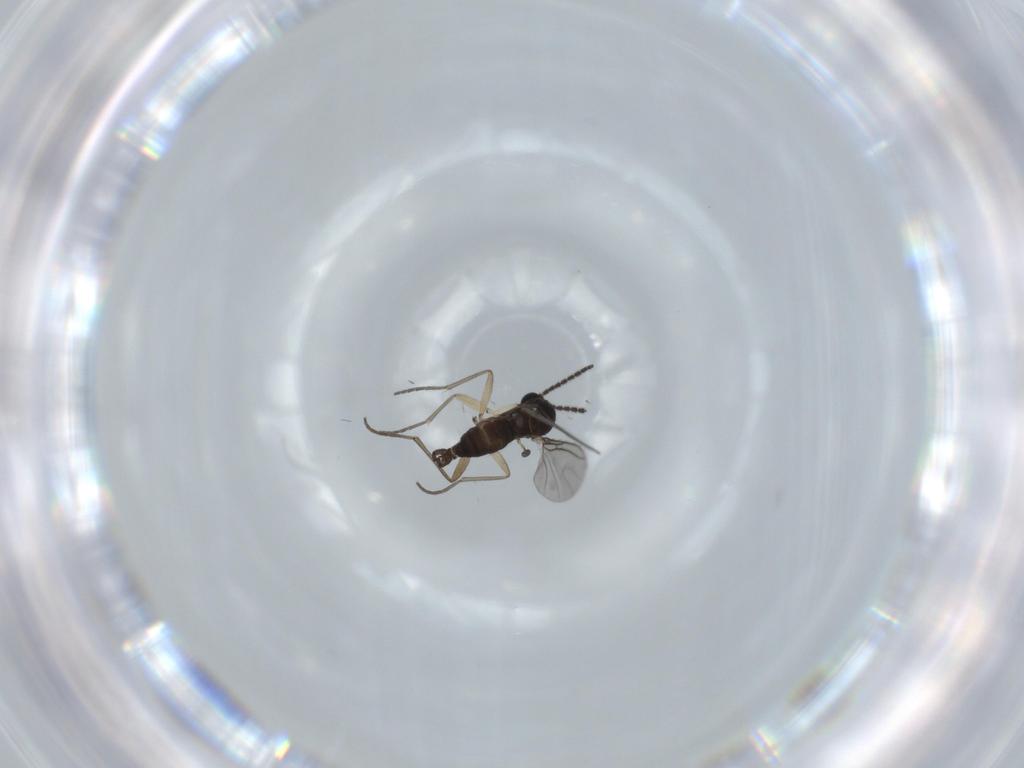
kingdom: Animalia
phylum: Arthropoda
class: Insecta
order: Diptera
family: Sciaridae
